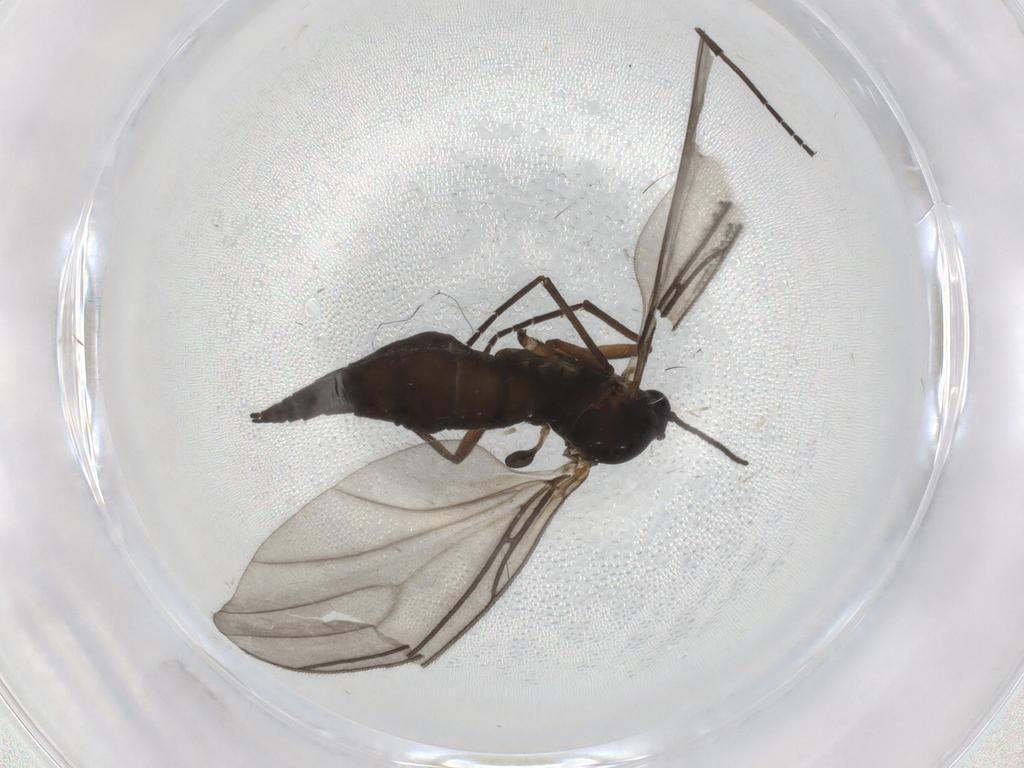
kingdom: Animalia
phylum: Arthropoda
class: Insecta
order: Diptera
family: Sciaridae
